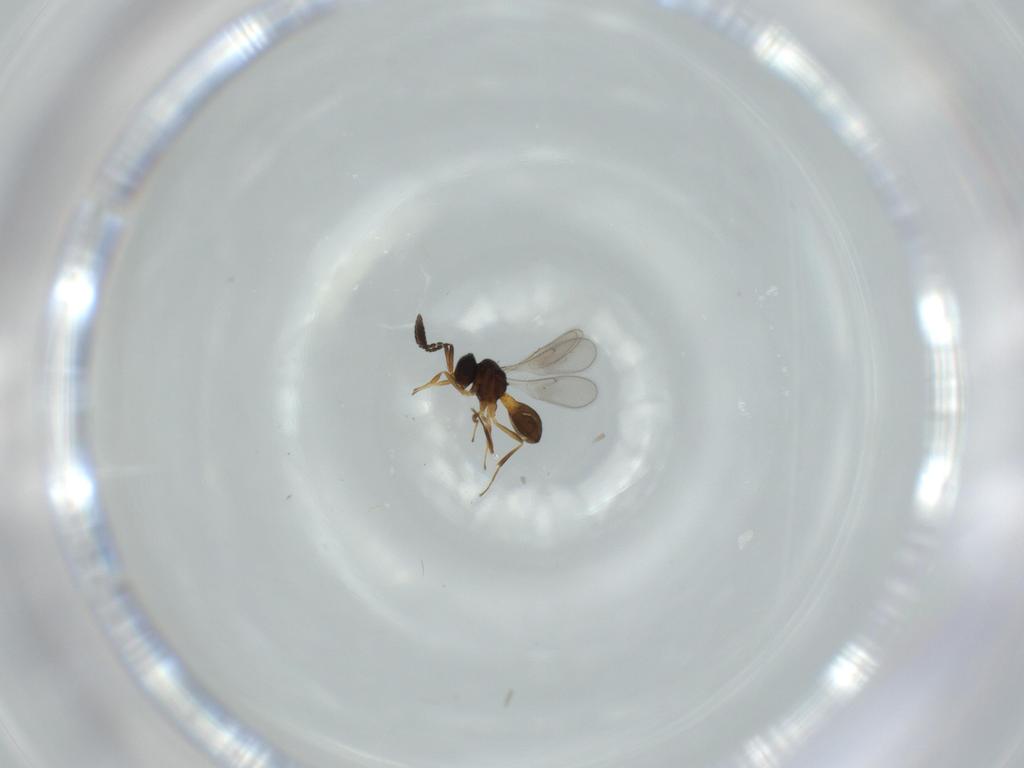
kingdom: Animalia
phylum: Arthropoda
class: Insecta
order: Hymenoptera
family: Scelionidae
